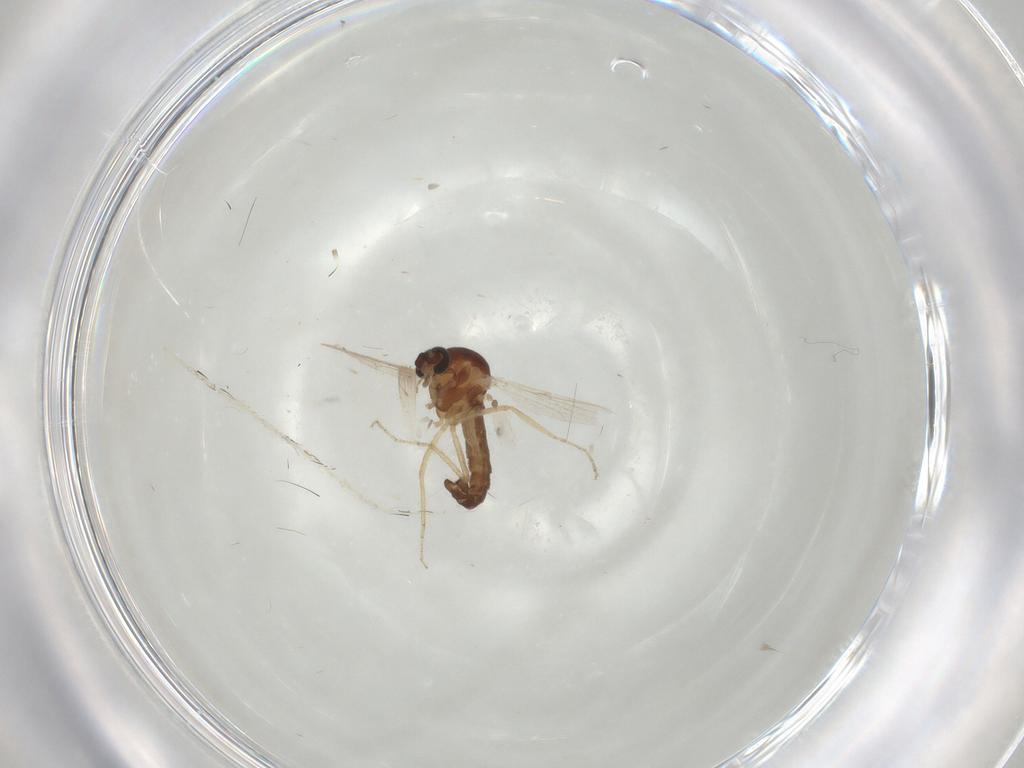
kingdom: Animalia
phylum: Arthropoda
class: Insecta
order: Diptera
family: Ceratopogonidae
